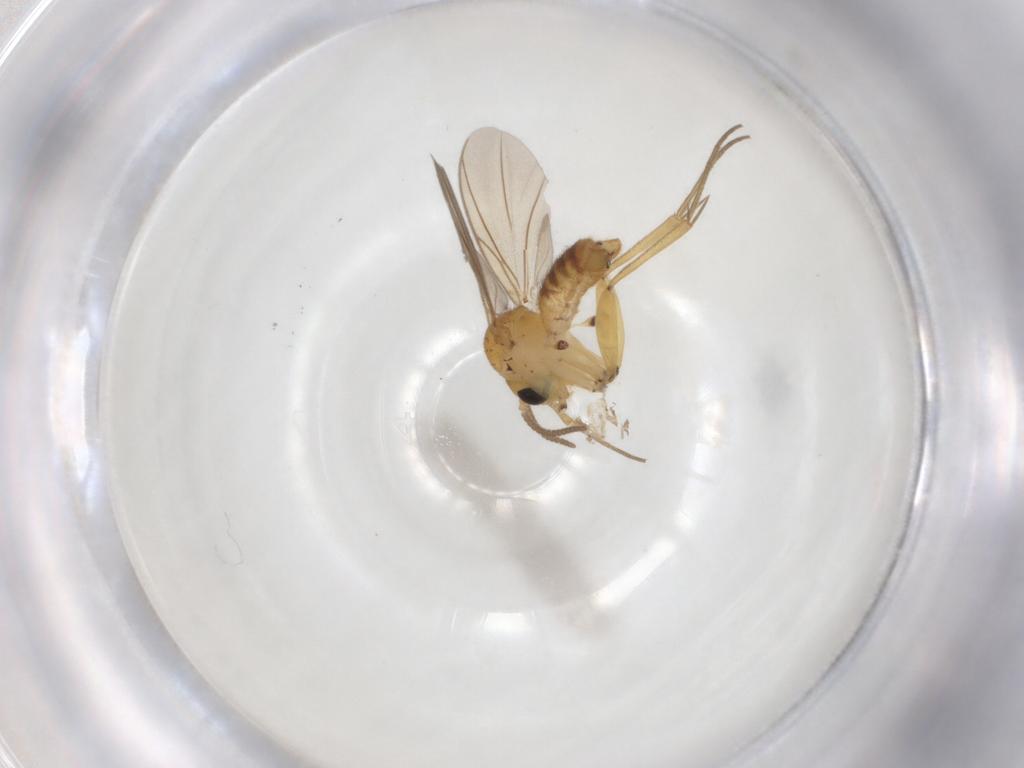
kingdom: Animalia
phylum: Arthropoda
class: Insecta
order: Diptera
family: Mycetophilidae
